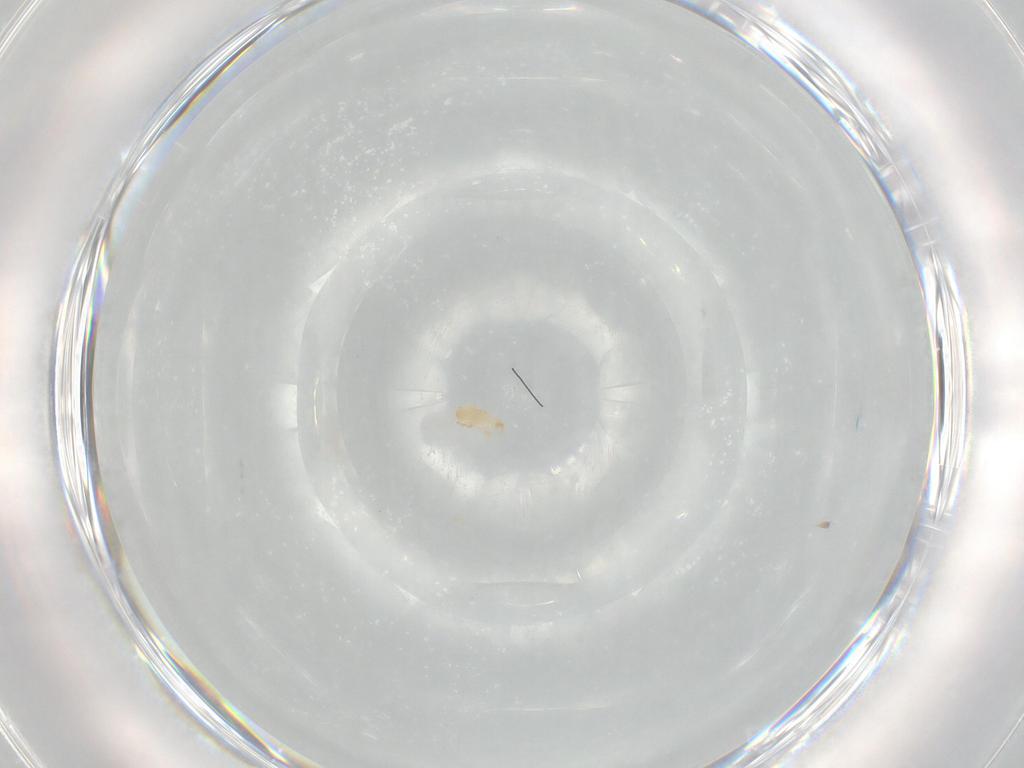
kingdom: Animalia
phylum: Arthropoda
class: Arachnida
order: Mesostigmata
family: Ascidae
